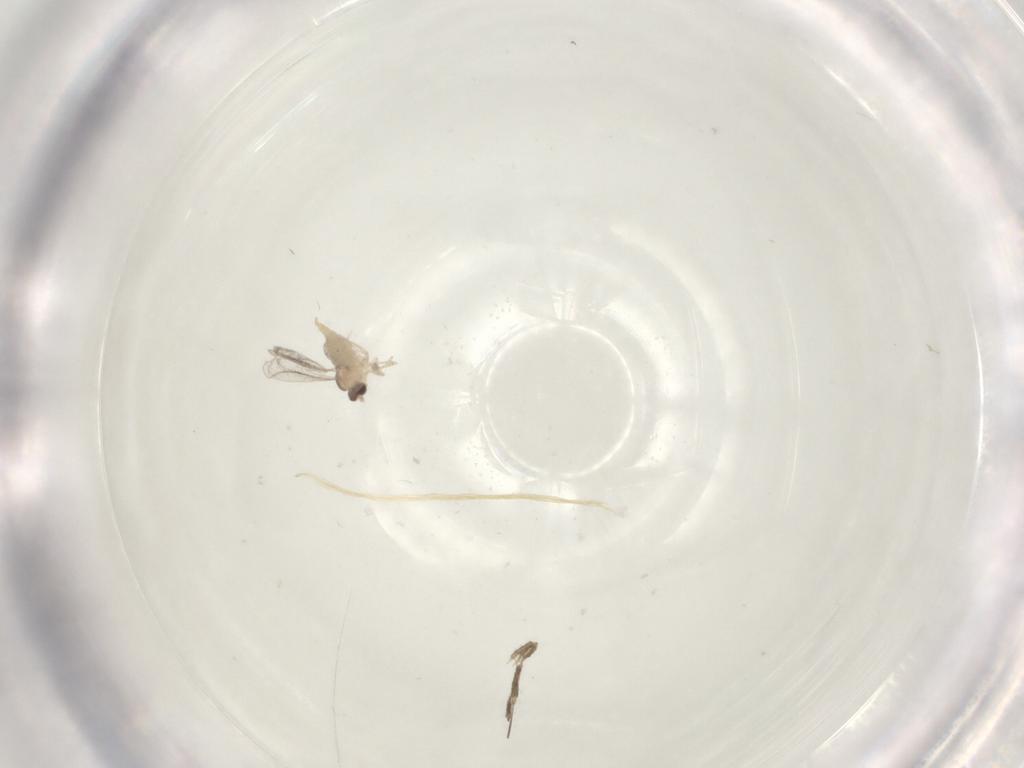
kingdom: Animalia
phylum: Arthropoda
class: Insecta
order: Diptera
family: Cecidomyiidae
